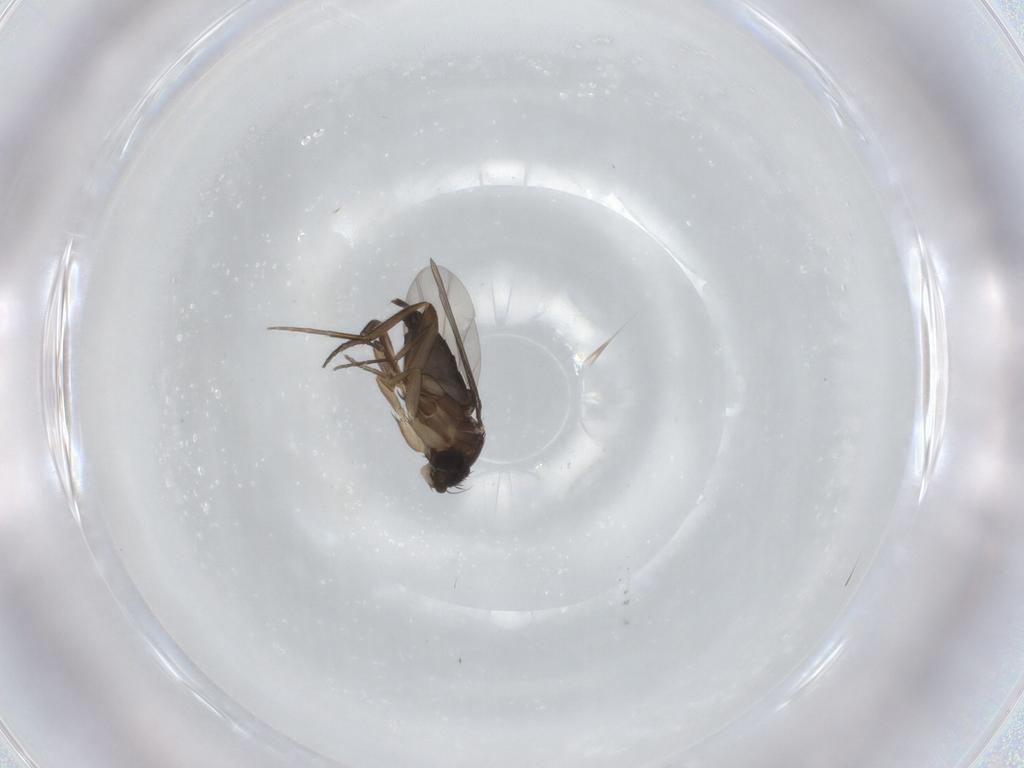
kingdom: Animalia
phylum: Arthropoda
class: Insecta
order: Diptera
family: Phoridae
